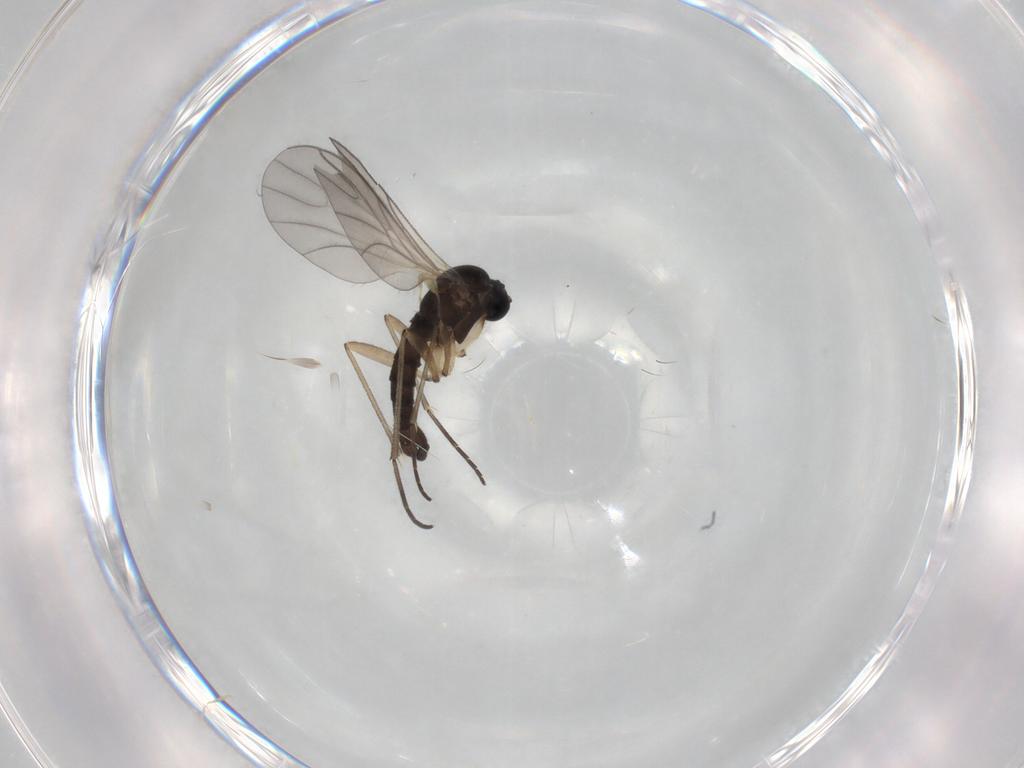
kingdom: Animalia
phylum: Arthropoda
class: Insecta
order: Diptera
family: Sciaridae
